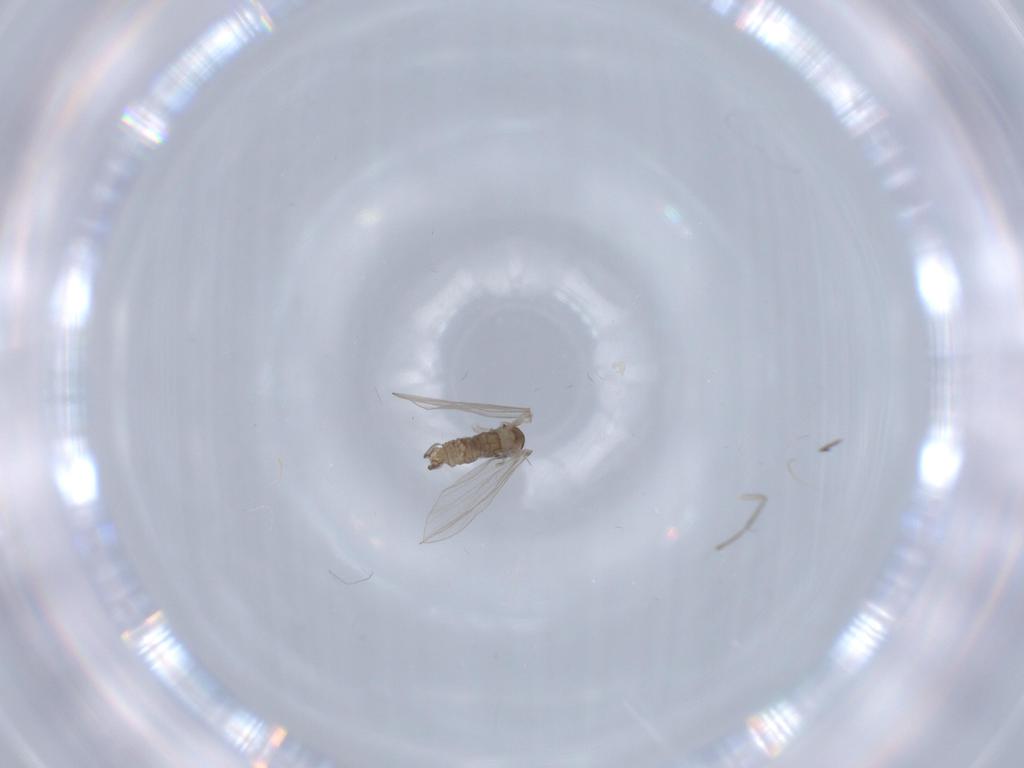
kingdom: Animalia
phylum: Arthropoda
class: Insecta
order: Diptera
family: Psychodidae
